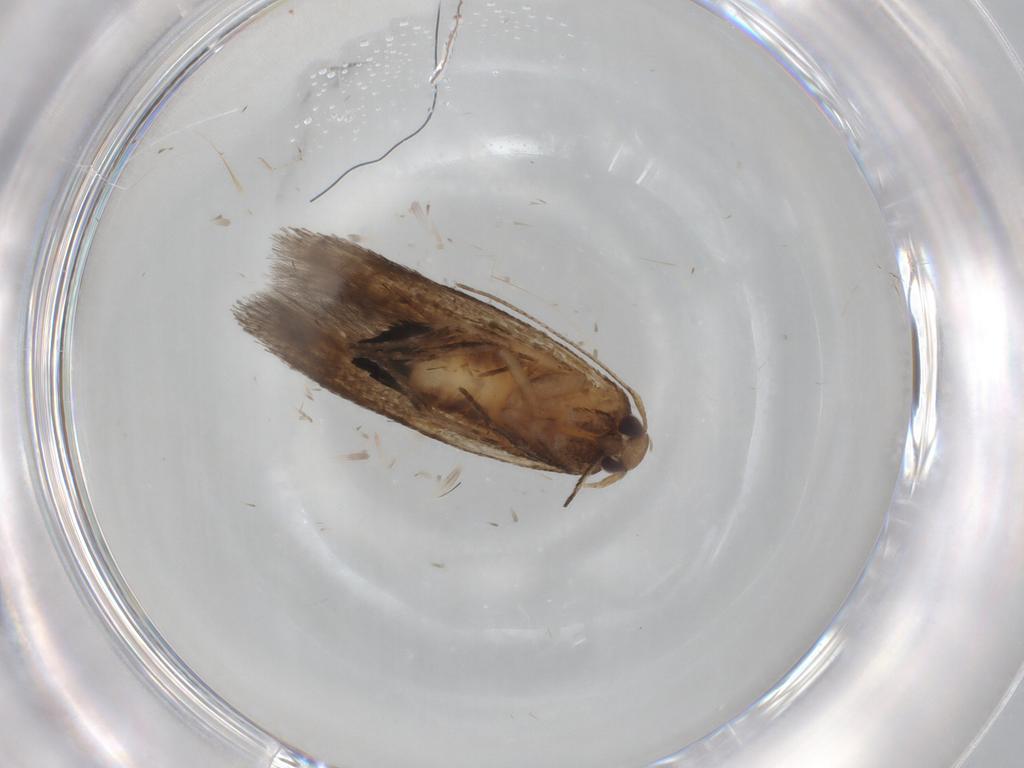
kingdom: Animalia
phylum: Arthropoda
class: Insecta
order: Lepidoptera
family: Cosmopterigidae
